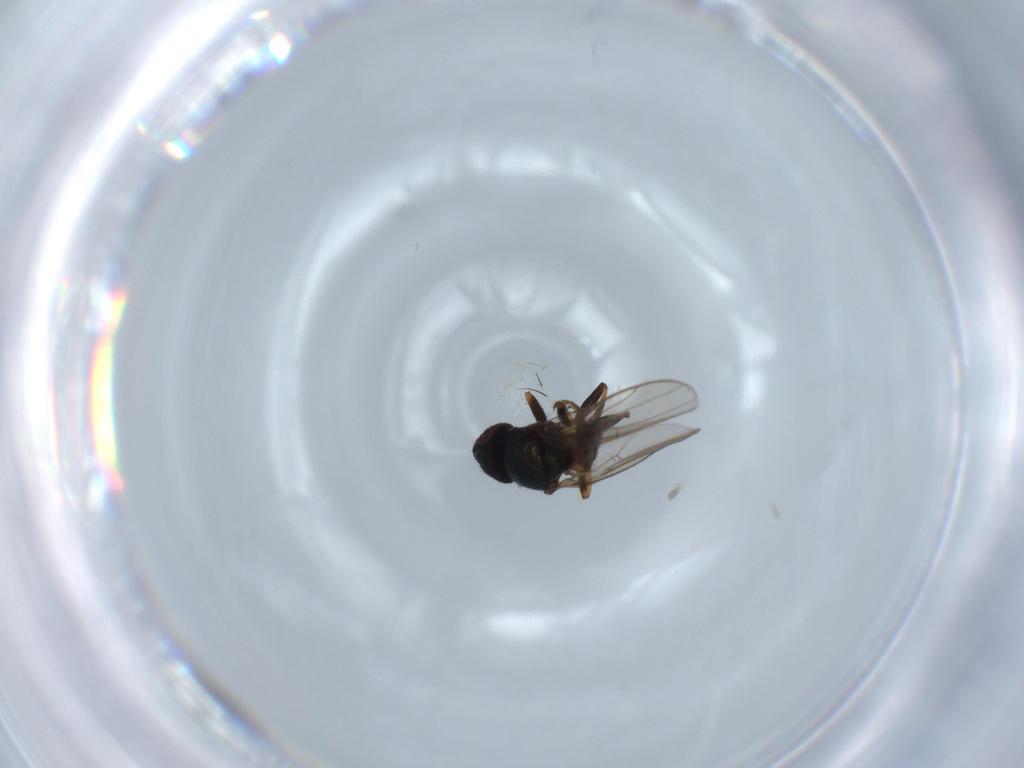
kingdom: Animalia
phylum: Arthropoda
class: Insecta
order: Diptera
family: Chloropidae
